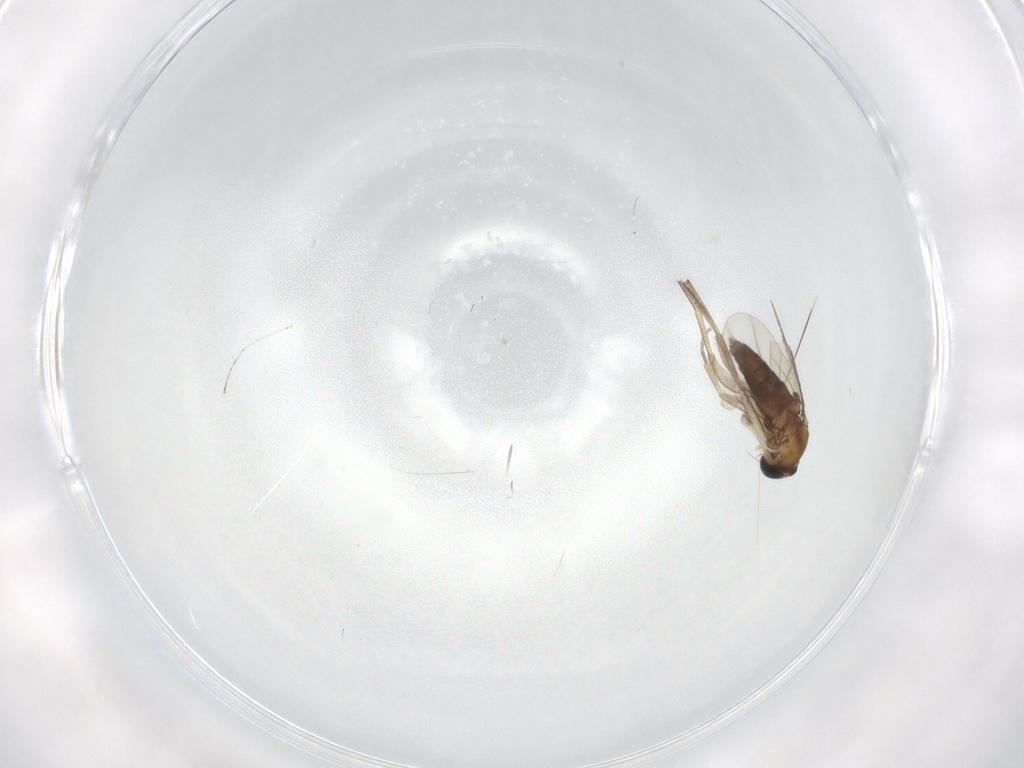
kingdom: Animalia
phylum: Arthropoda
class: Insecta
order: Diptera
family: Phoridae
